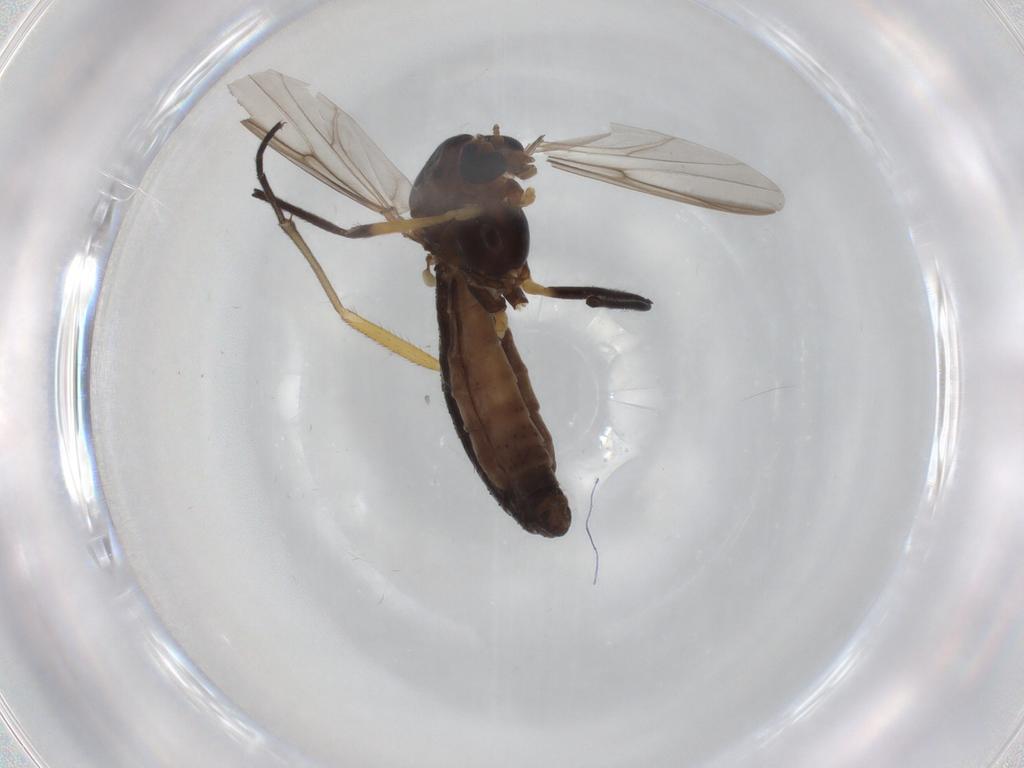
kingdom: Animalia
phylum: Arthropoda
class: Insecta
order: Diptera
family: Chironomidae
